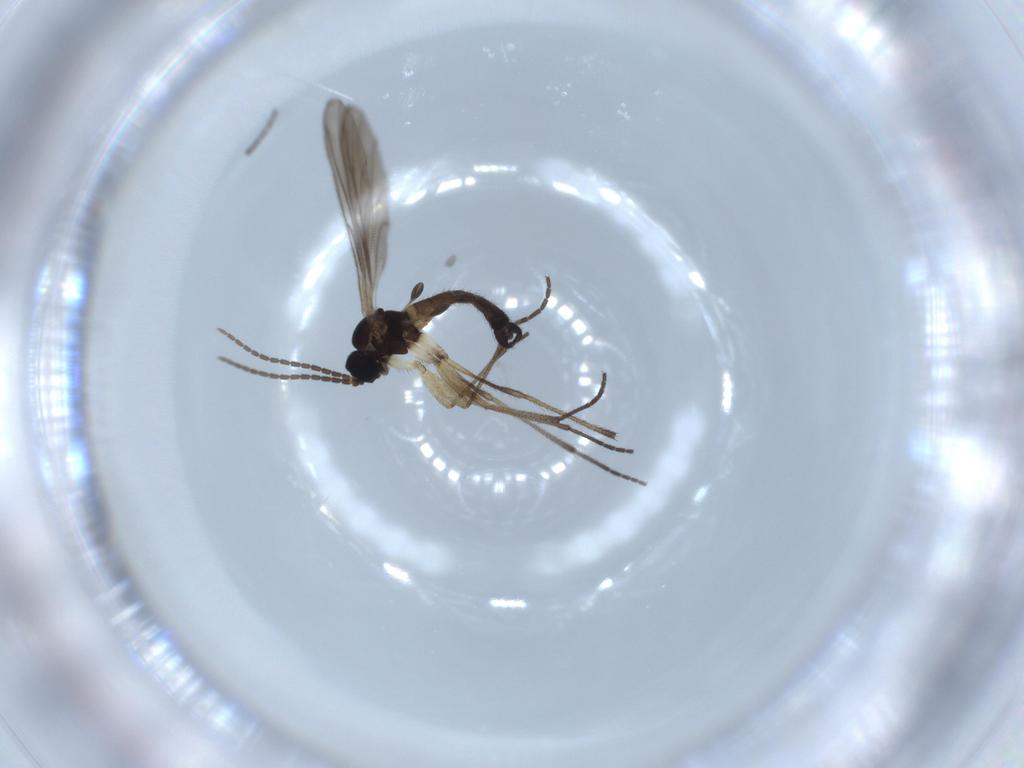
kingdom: Animalia
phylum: Arthropoda
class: Insecta
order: Diptera
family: Sciaridae
